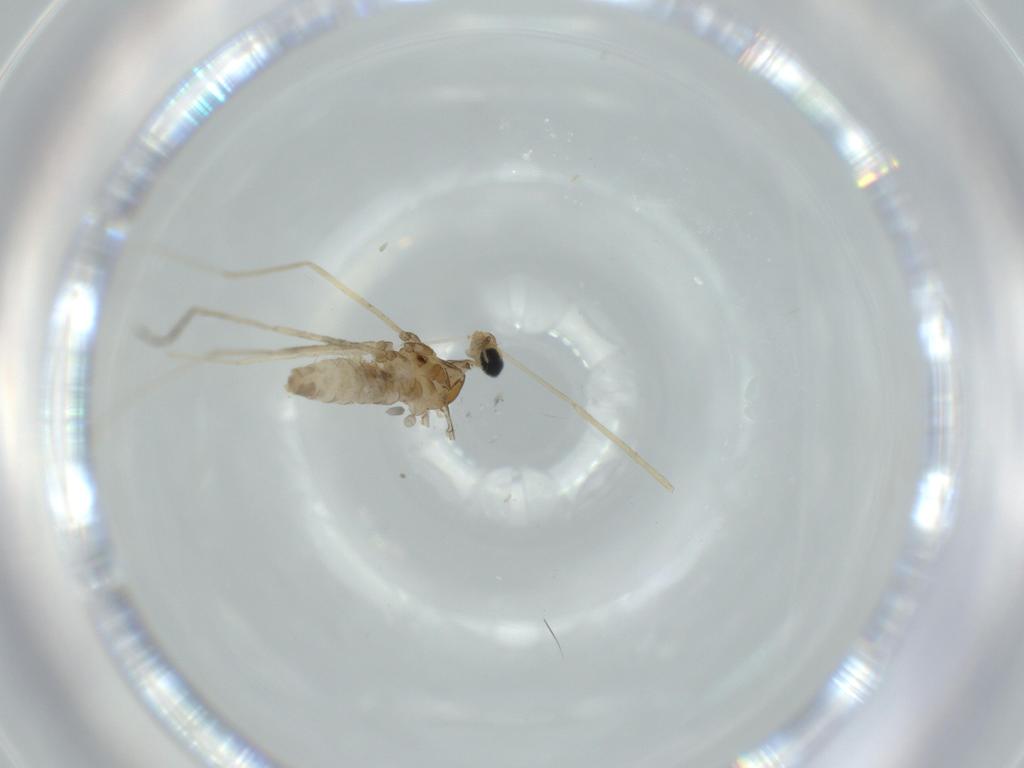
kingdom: Animalia
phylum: Arthropoda
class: Insecta
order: Diptera
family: Cecidomyiidae
